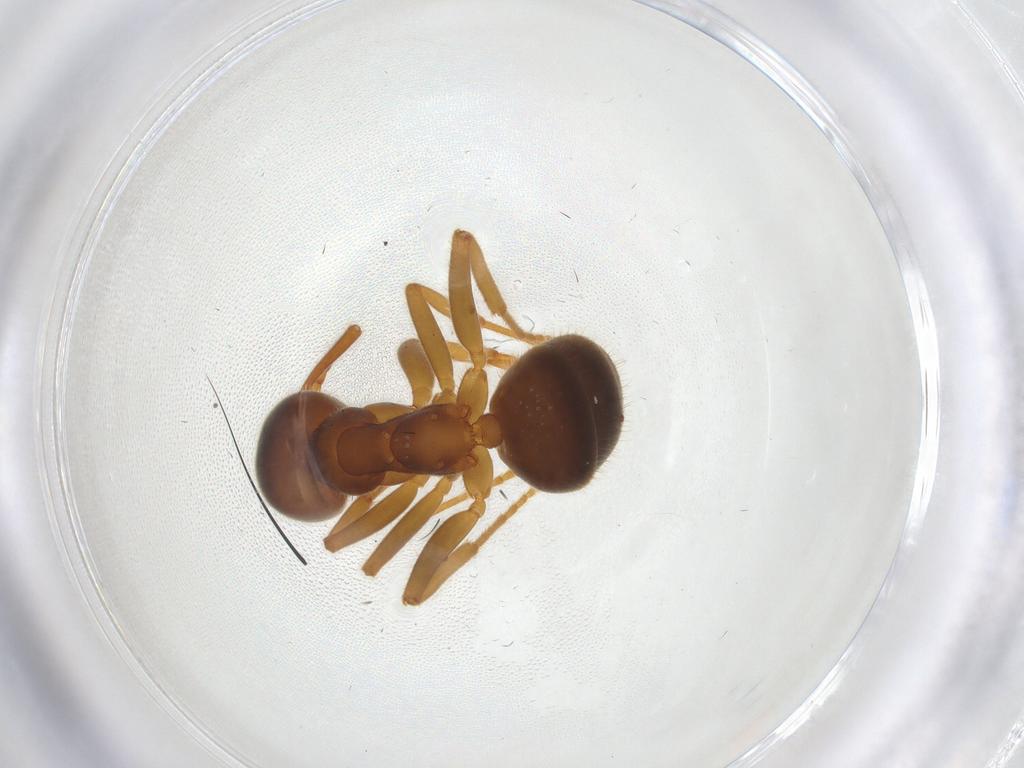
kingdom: Animalia
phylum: Arthropoda
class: Insecta
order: Hymenoptera
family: Formicidae
